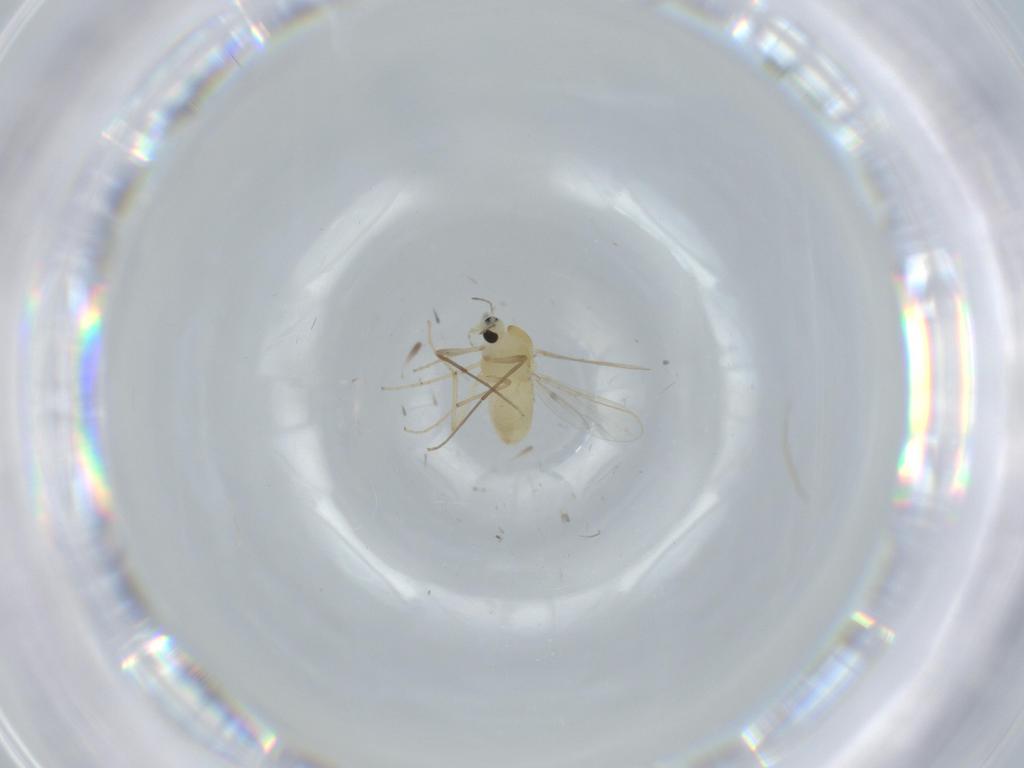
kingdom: Animalia
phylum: Arthropoda
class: Insecta
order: Diptera
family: Chironomidae
